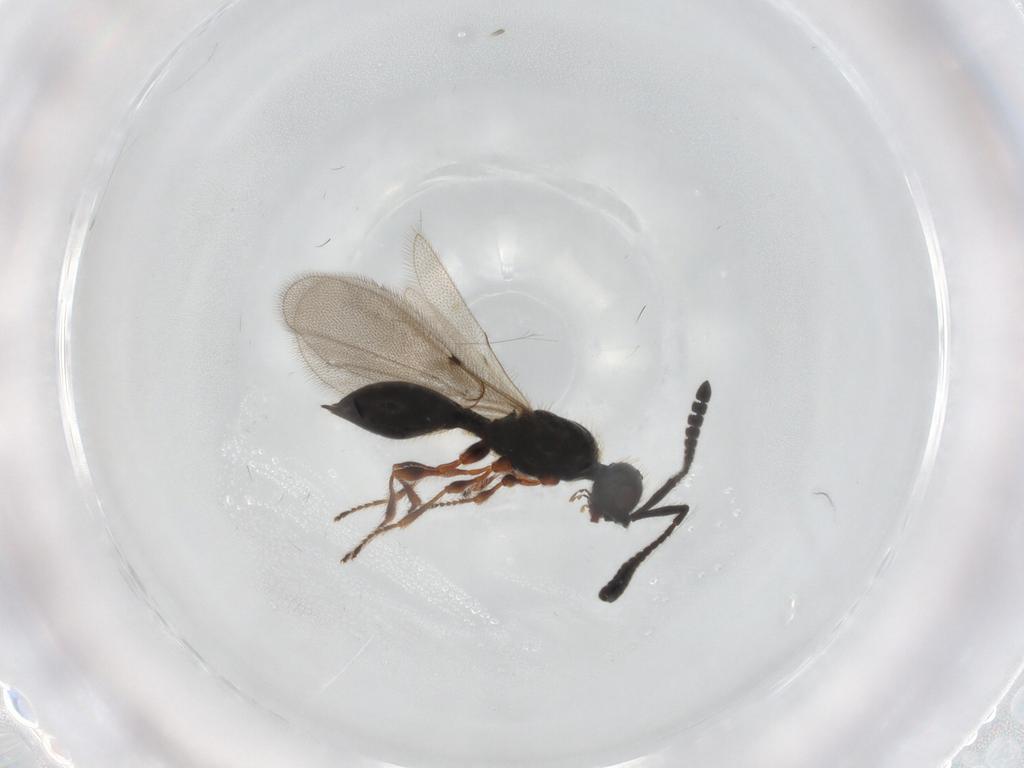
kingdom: Animalia
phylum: Arthropoda
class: Insecta
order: Hymenoptera
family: Diapriidae
